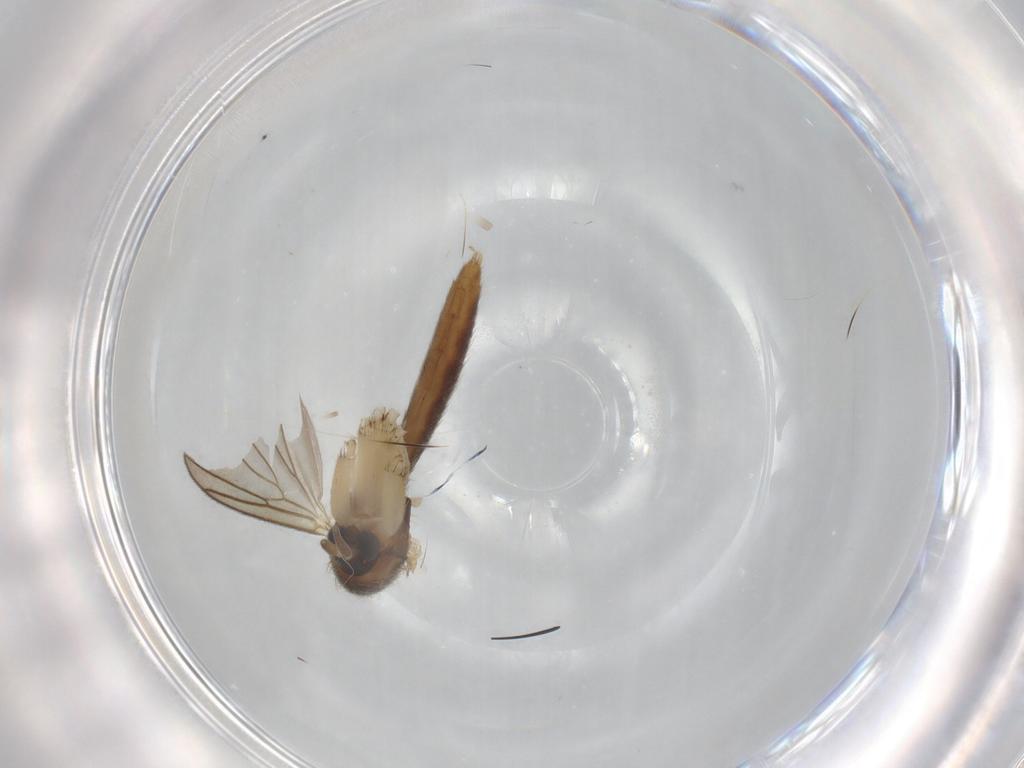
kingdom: Animalia
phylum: Arthropoda
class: Insecta
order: Diptera
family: Mycetophilidae
